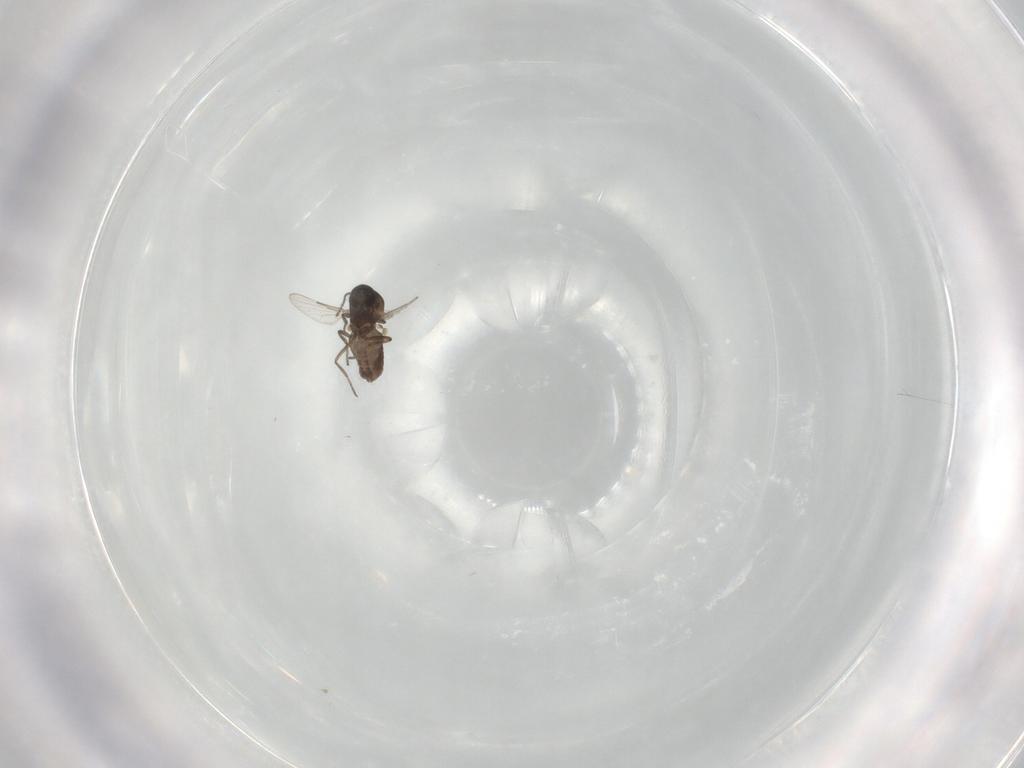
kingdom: Animalia
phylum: Arthropoda
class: Insecta
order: Diptera
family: Ceratopogonidae
